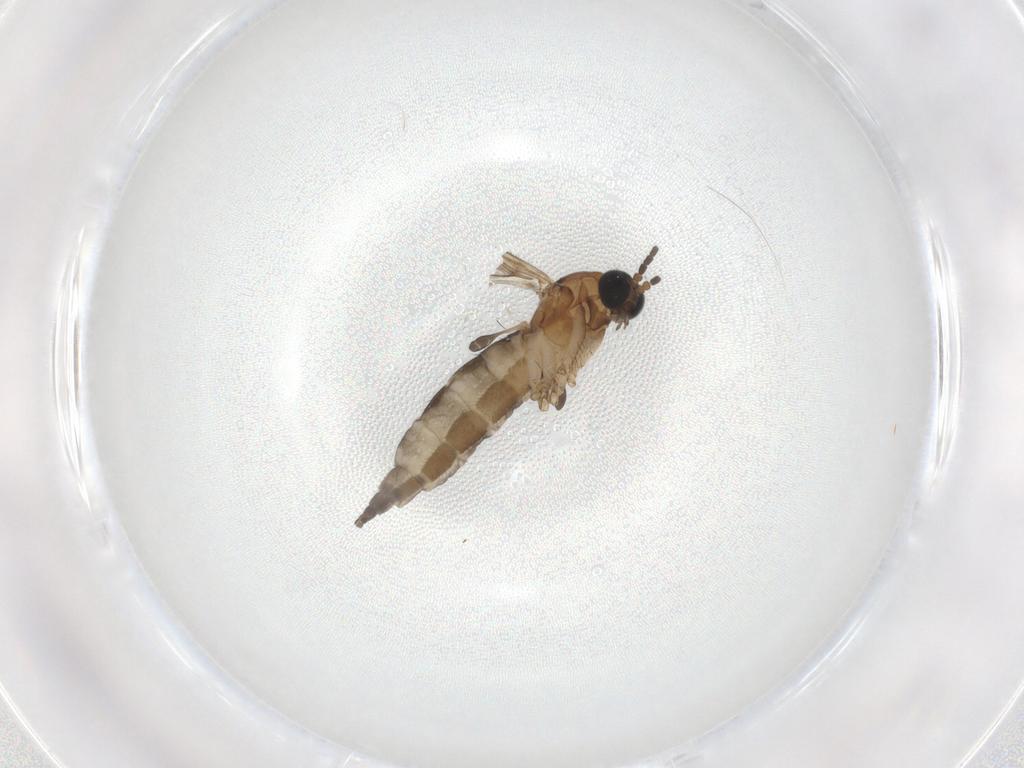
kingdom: Animalia
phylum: Arthropoda
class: Insecta
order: Diptera
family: Sciaridae
